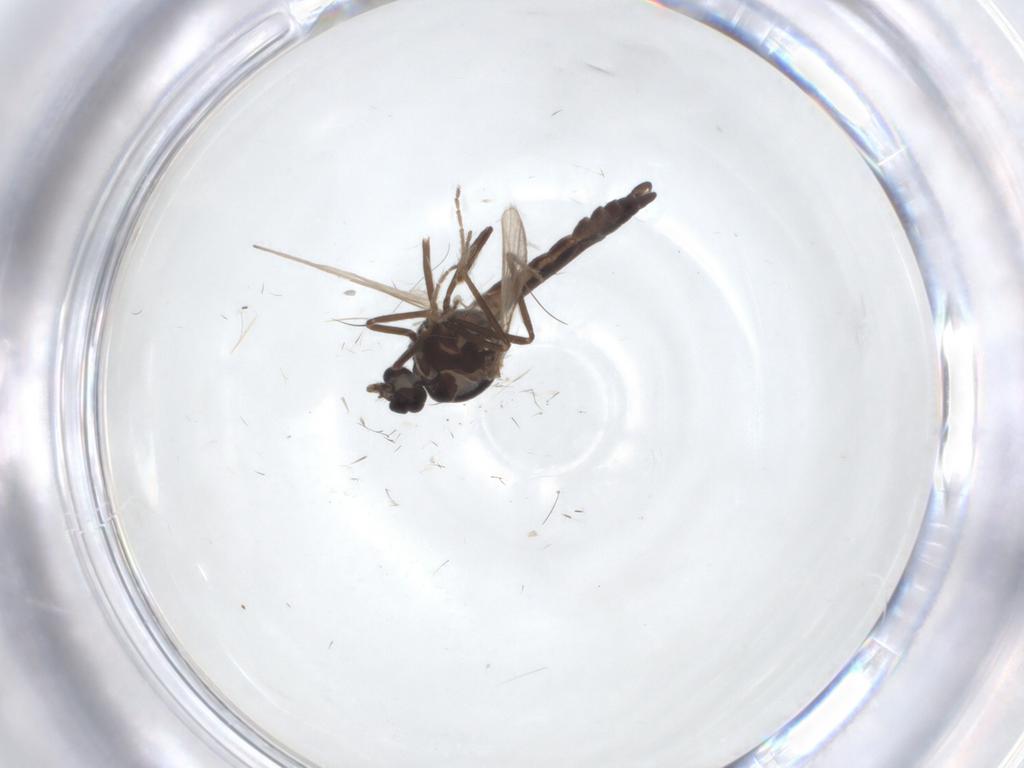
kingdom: Animalia
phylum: Arthropoda
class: Insecta
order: Diptera
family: Ceratopogonidae
